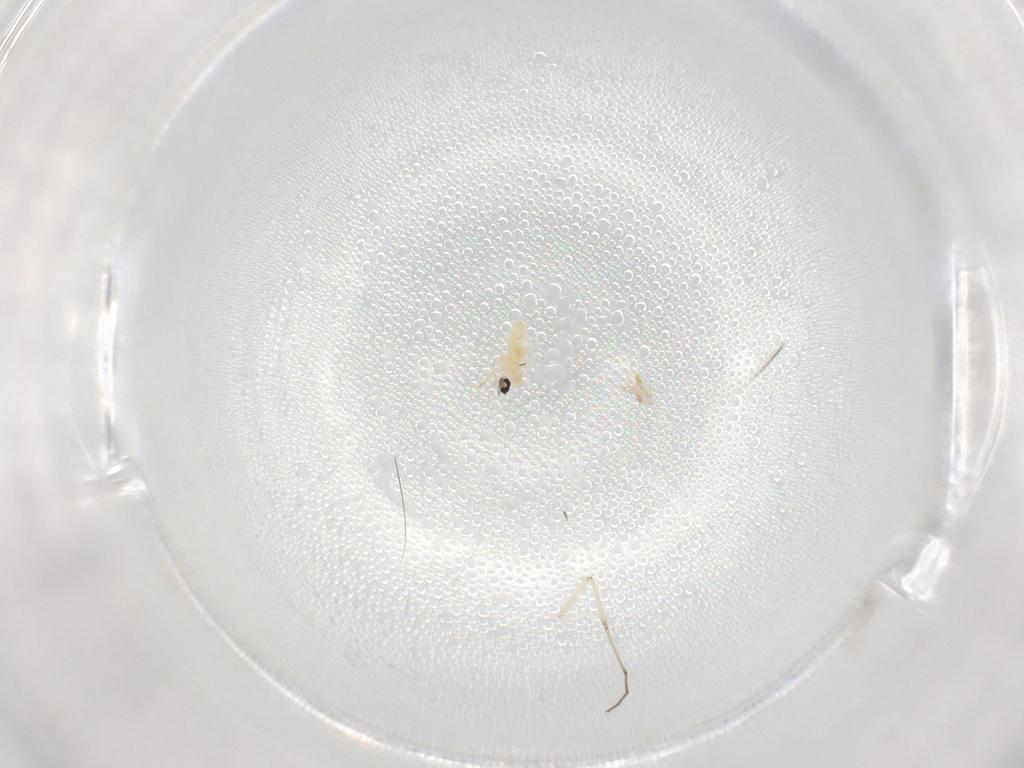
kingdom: Animalia
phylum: Arthropoda
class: Insecta
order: Diptera
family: Cecidomyiidae
